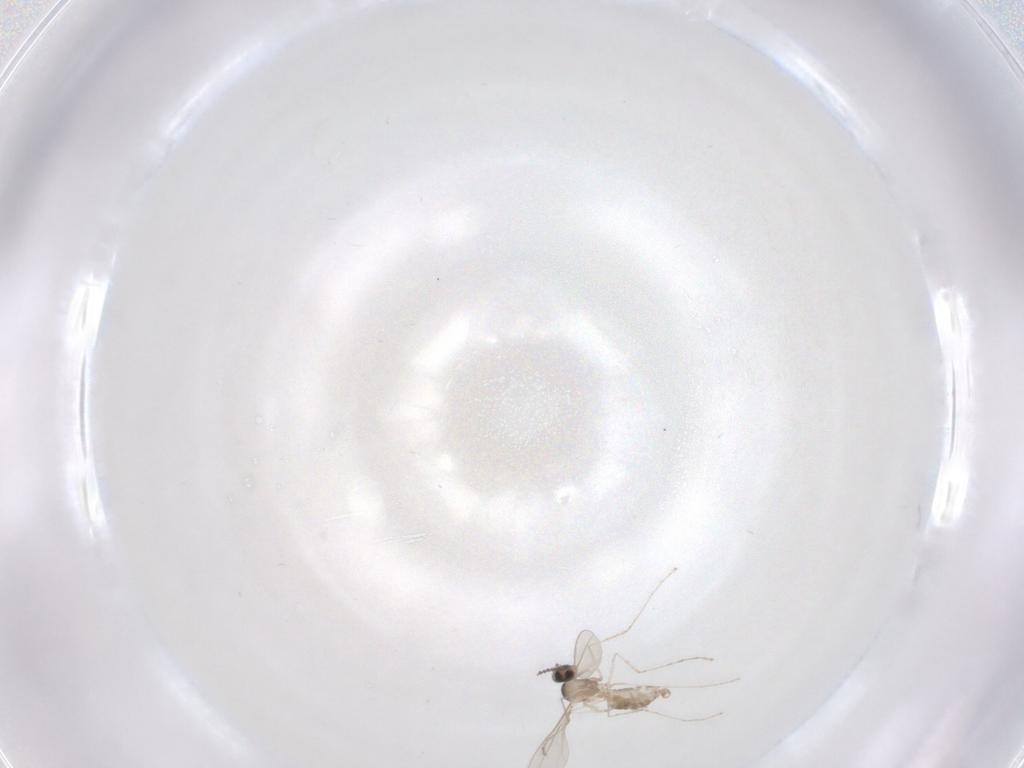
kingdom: Animalia
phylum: Arthropoda
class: Insecta
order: Diptera
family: Cecidomyiidae
